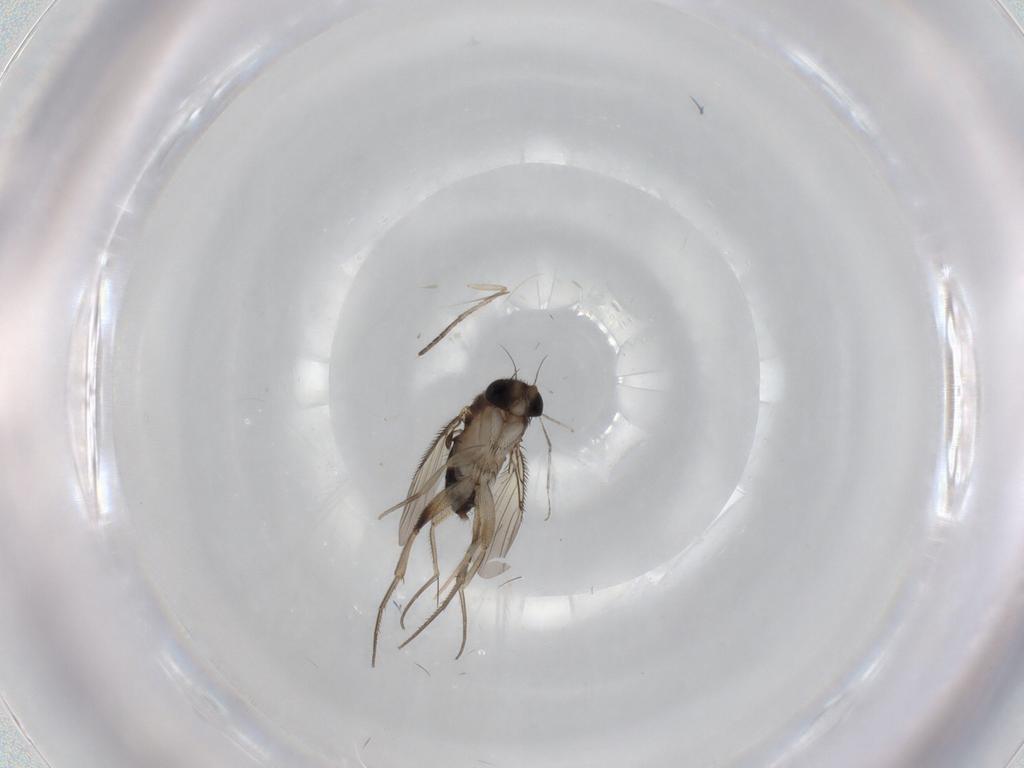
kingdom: Animalia
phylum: Arthropoda
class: Insecta
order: Diptera
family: Phoridae
